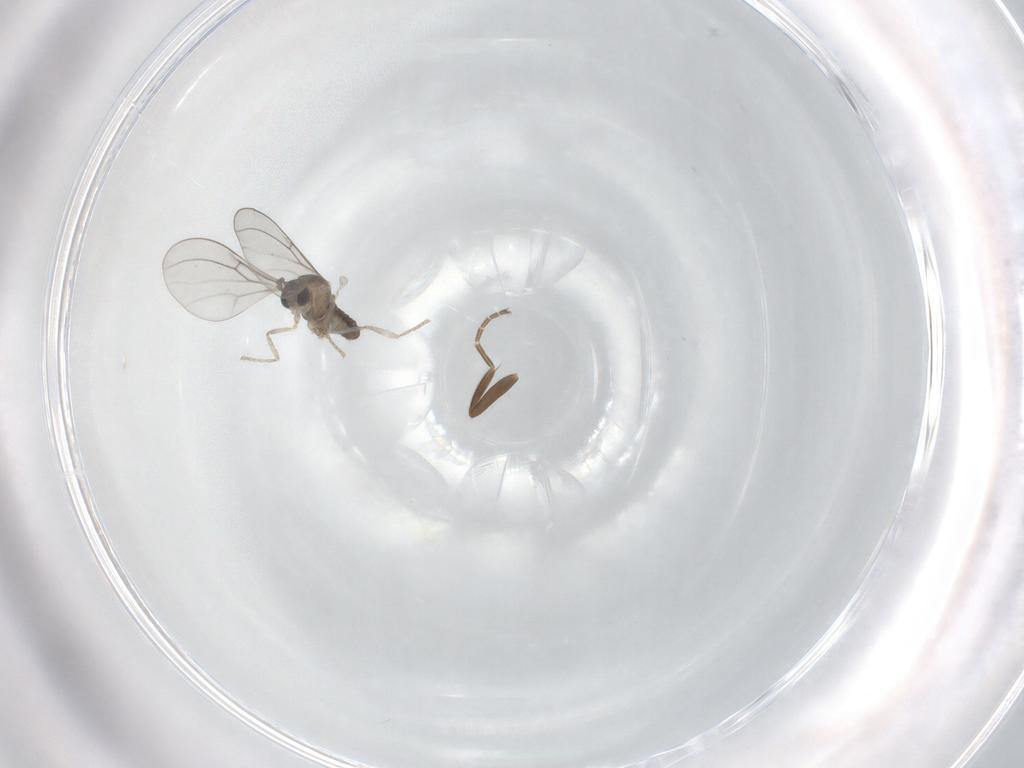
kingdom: Animalia
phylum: Arthropoda
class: Insecta
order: Diptera
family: Cecidomyiidae
